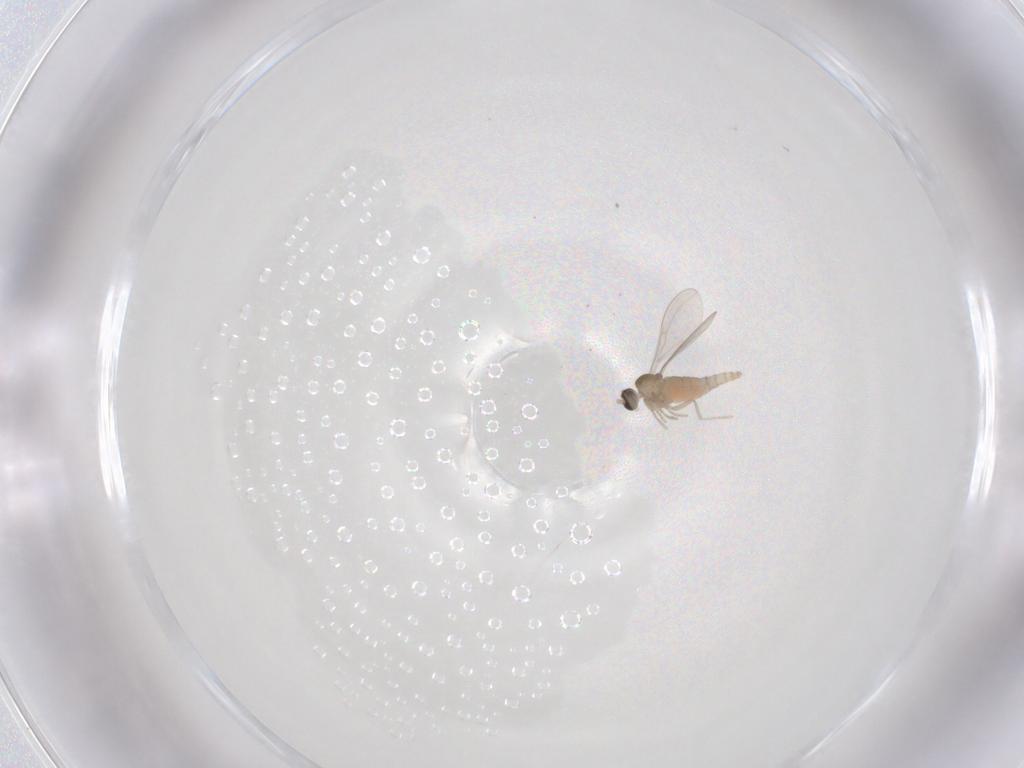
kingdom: Animalia
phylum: Arthropoda
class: Insecta
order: Diptera
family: Cecidomyiidae
